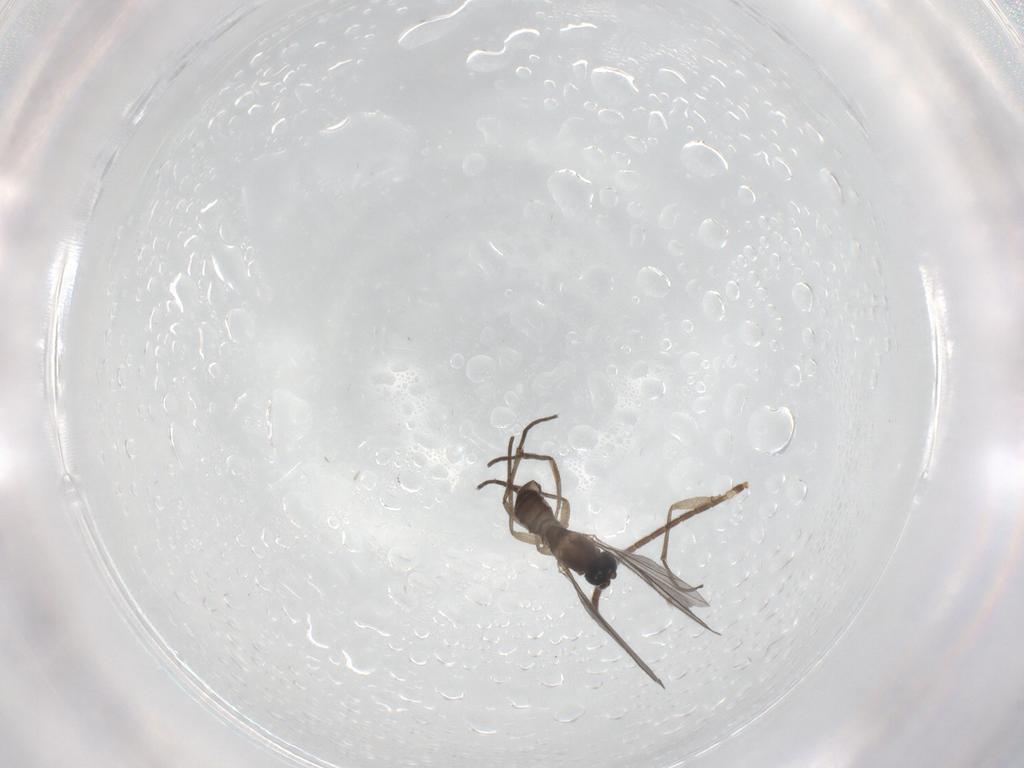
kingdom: Animalia
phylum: Arthropoda
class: Insecta
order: Diptera
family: Sciaridae
